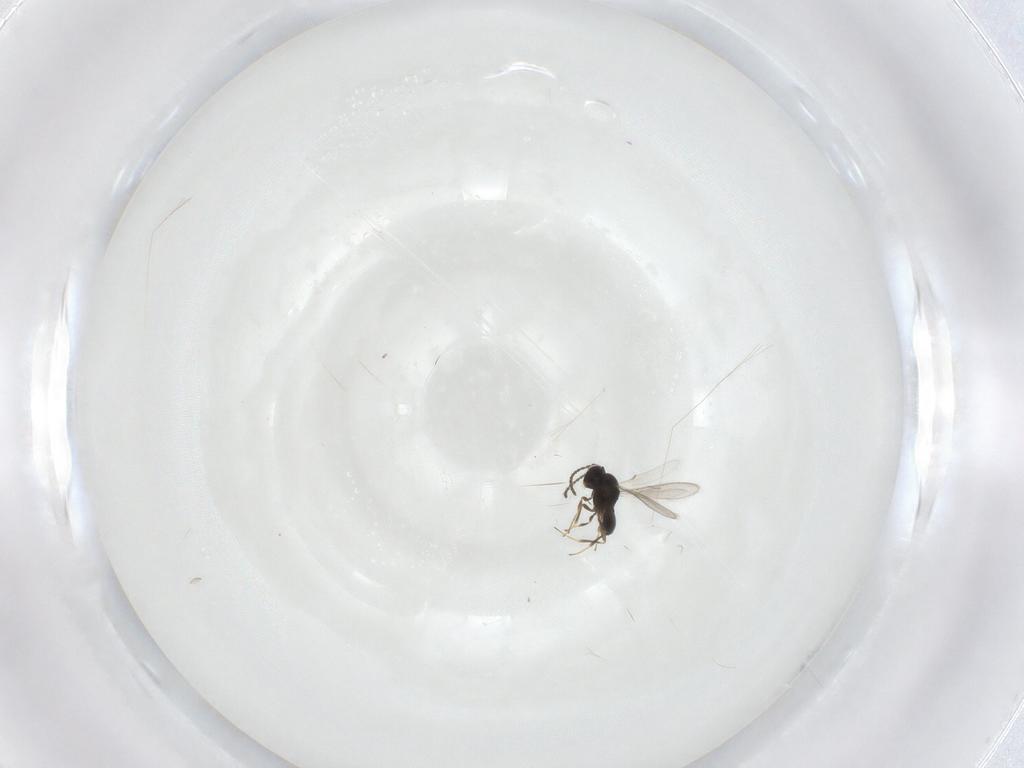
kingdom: Animalia
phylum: Arthropoda
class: Insecta
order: Hymenoptera
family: Scelionidae
